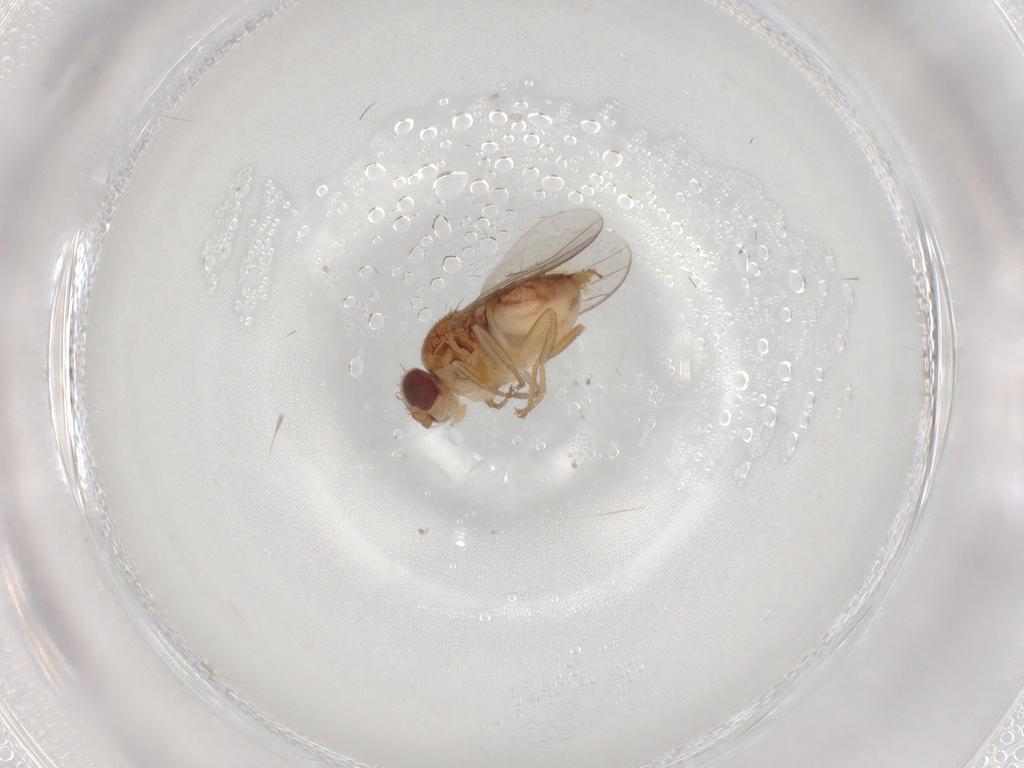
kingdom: Animalia
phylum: Arthropoda
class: Insecta
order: Diptera
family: Chloropidae
